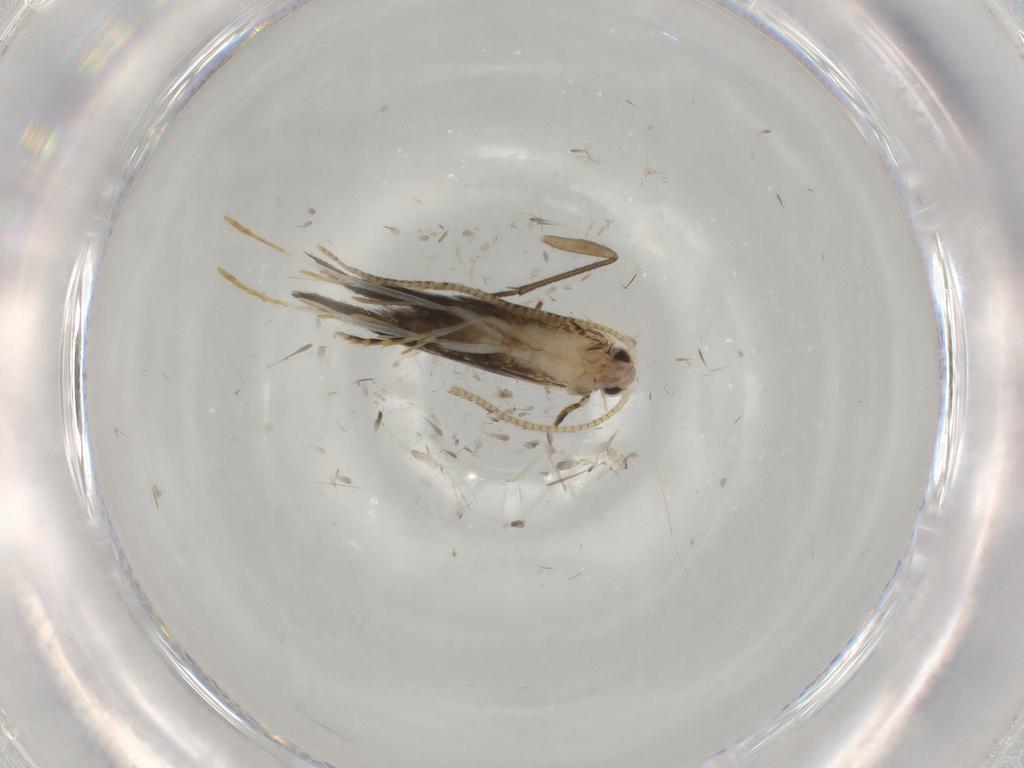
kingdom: Animalia
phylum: Arthropoda
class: Insecta
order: Lepidoptera
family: Tineidae
